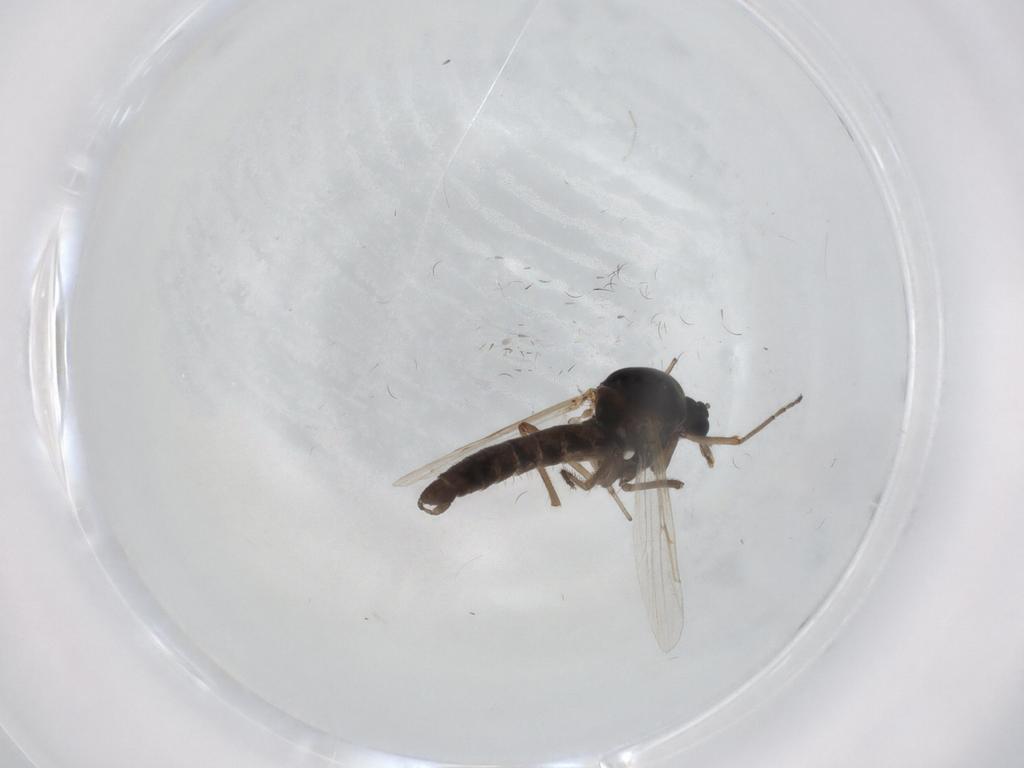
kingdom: Animalia
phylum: Arthropoda
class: Insecta
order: Diptera
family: Ceratopogonidae
